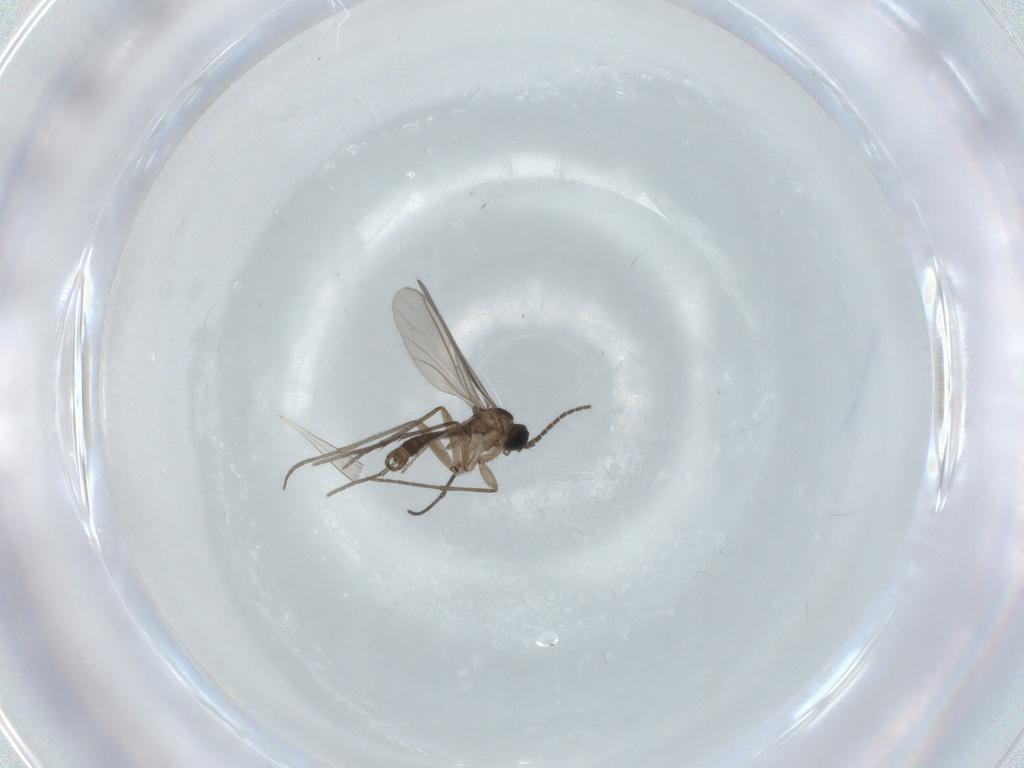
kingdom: Animalia
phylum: Arthropoda
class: Insecta
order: Diptera
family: Sciaridae
